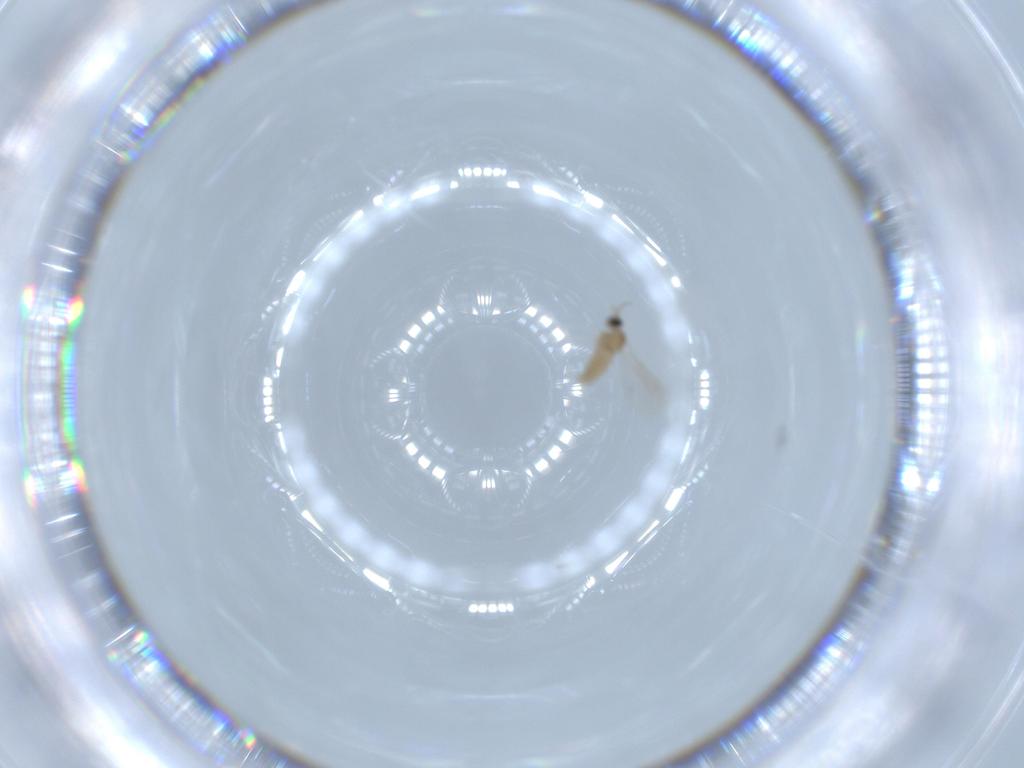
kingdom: Animalia
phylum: Arthropoda
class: Insecta
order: Diptera
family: Cecidomyiidae
